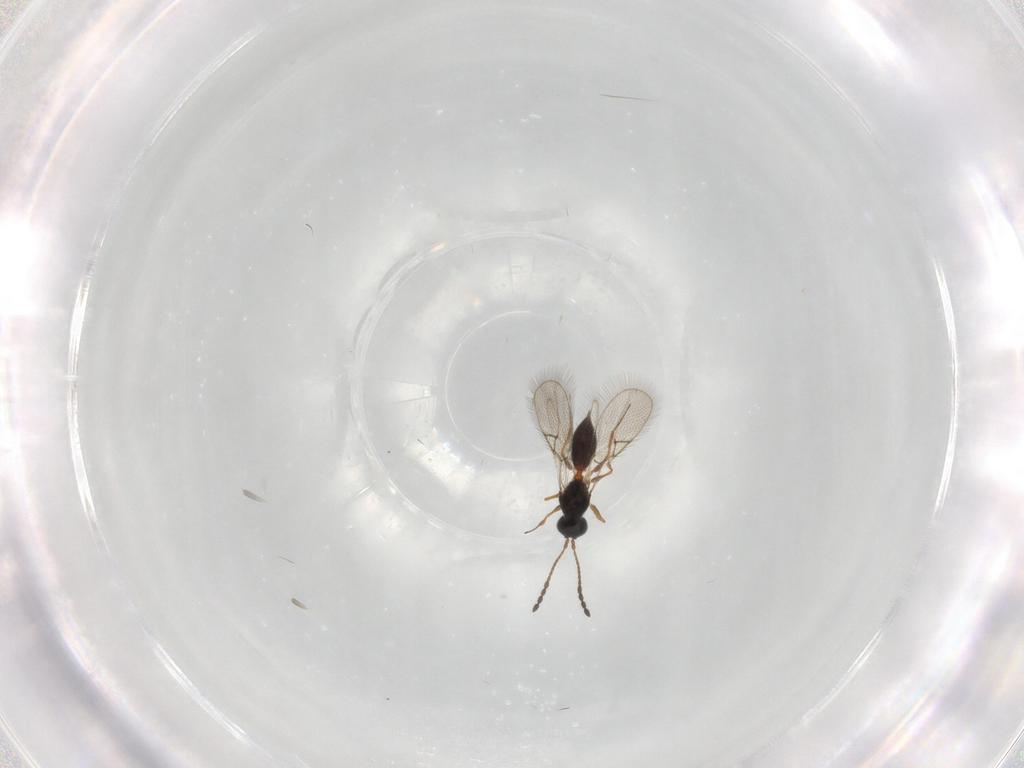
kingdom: Animalia
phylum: Arthropoda
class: Insecta
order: Hymenoptera
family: Figitidae
